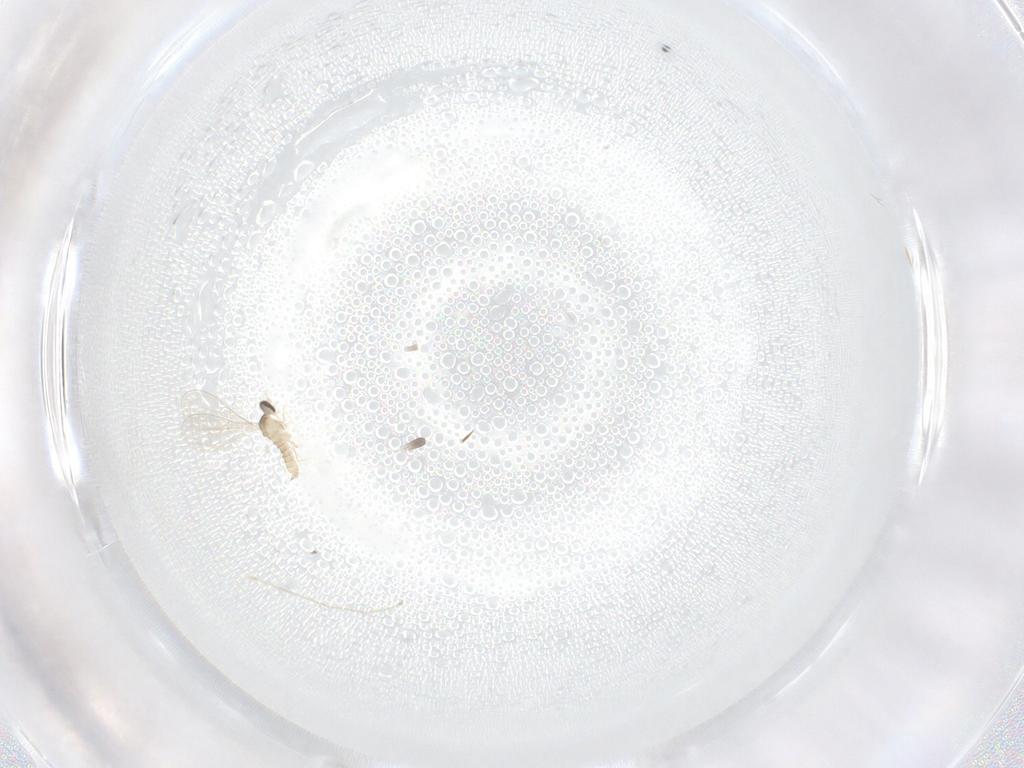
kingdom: Animalia
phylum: Arthropoda
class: Insecta
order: Diptera
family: Cecidomyiidae
